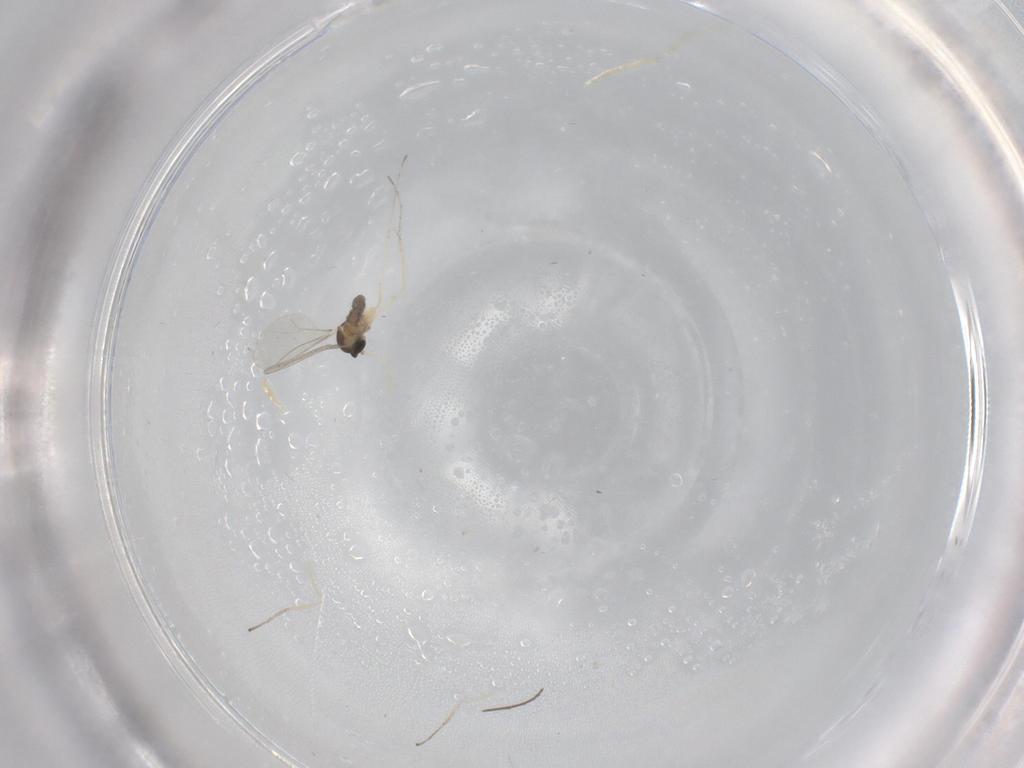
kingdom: Animalia
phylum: Arthropoda
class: Insecta
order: Diptera
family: Cecidomyiidae
